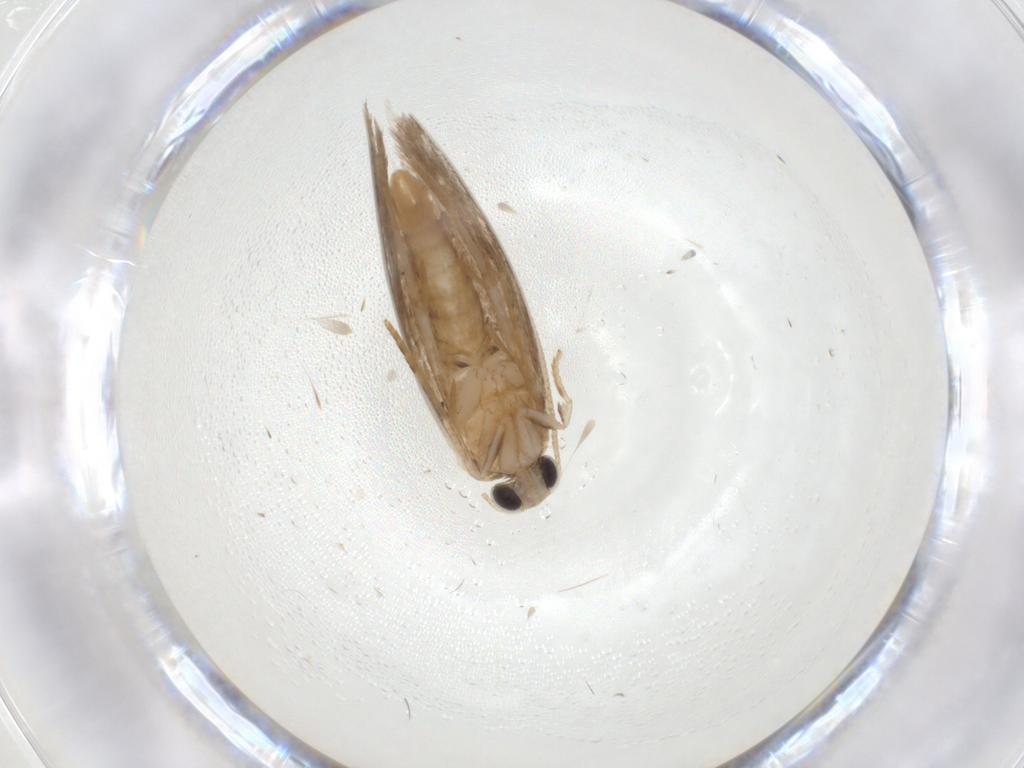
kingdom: Animalia
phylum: Arthropoda
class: Insecta
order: Lepidoptera
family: Tineidae
